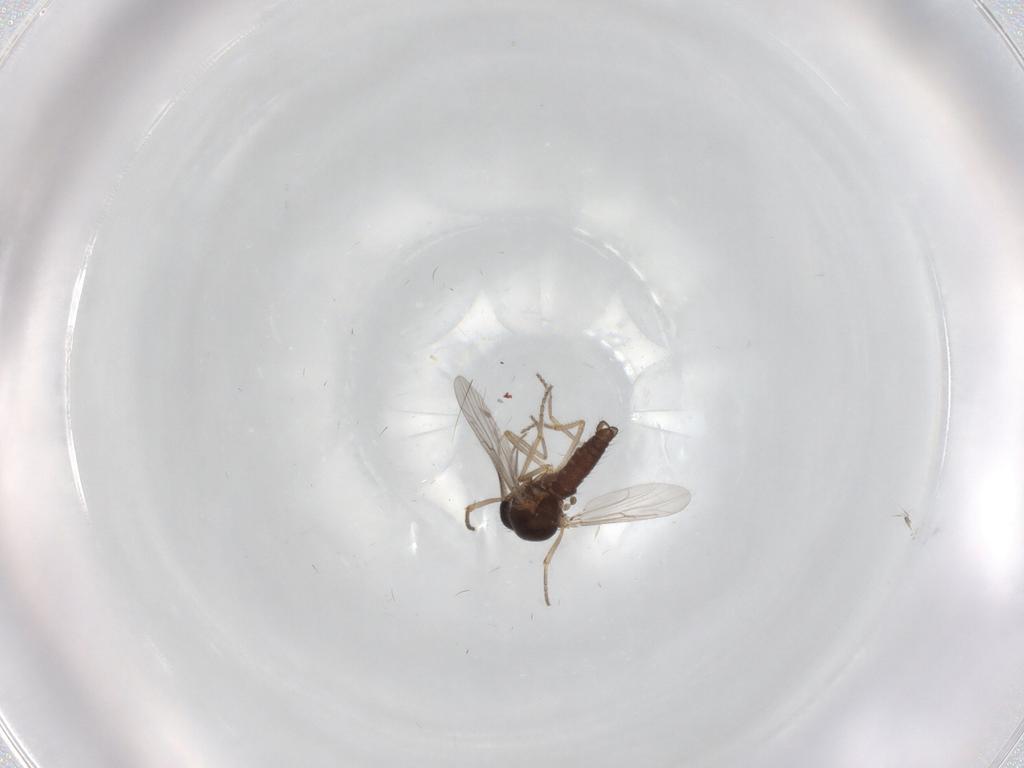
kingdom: Animalia
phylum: Arthropoda
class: Insecta
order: Diptera
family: Ceratopogonidae
